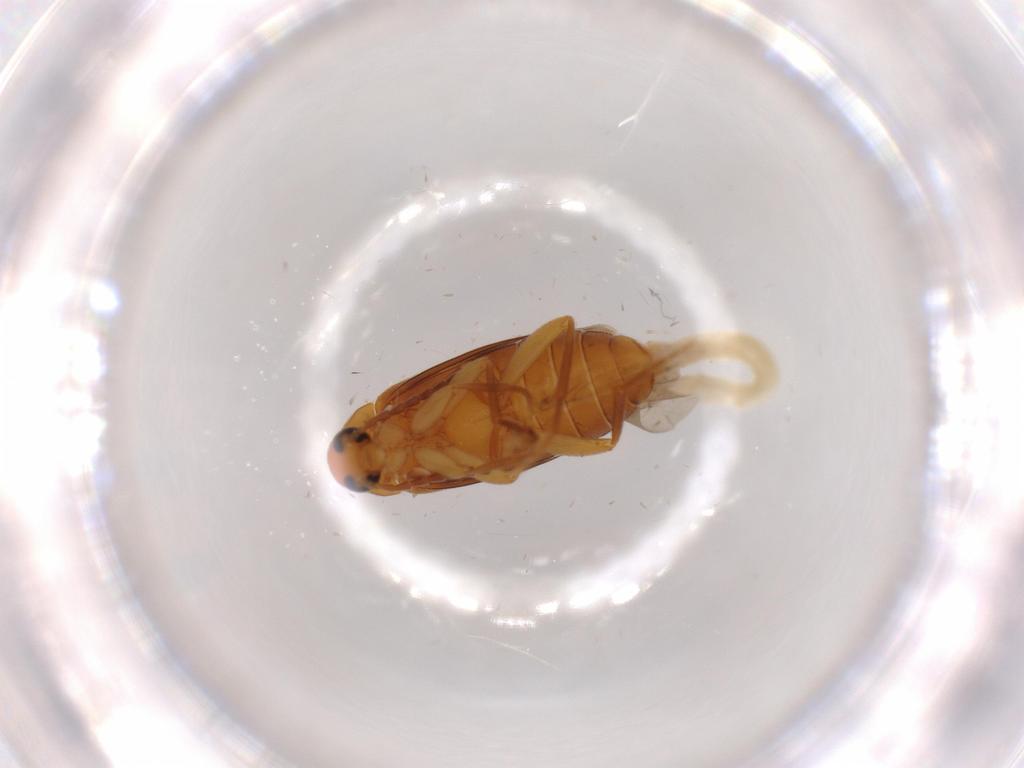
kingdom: Animalia
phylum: Arthropoda
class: Insecta
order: Coleoptera
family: Scraptiidae
